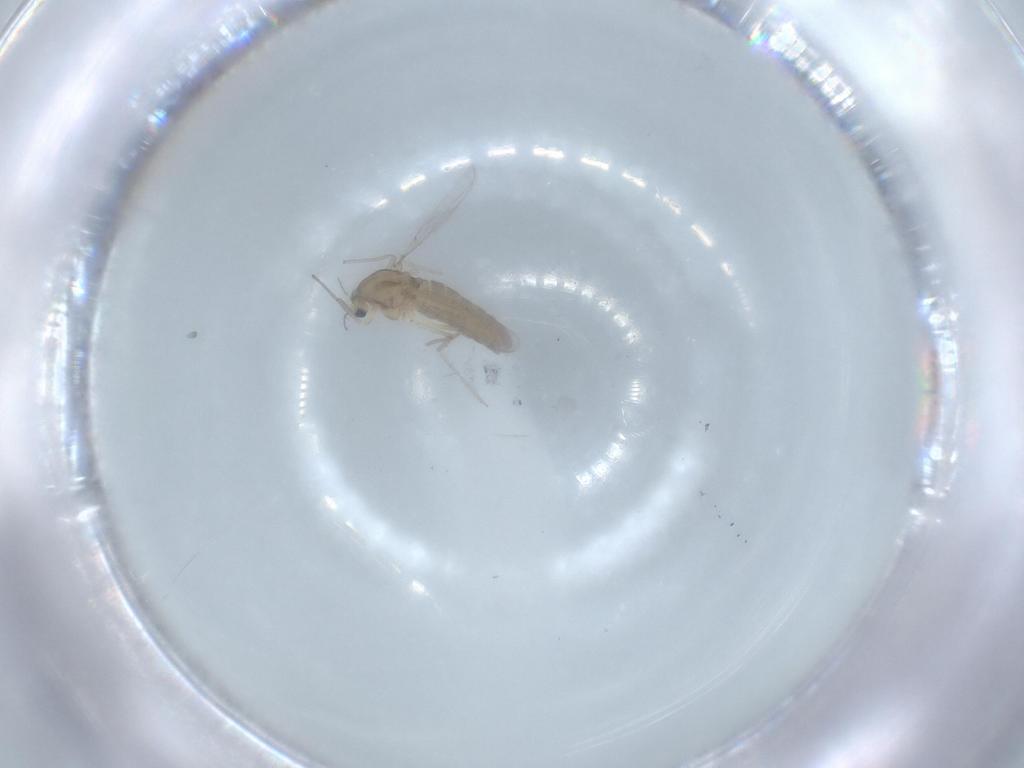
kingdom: Animalia
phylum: Arthropoda
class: Insecta
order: Diptera
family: Chironomidae
